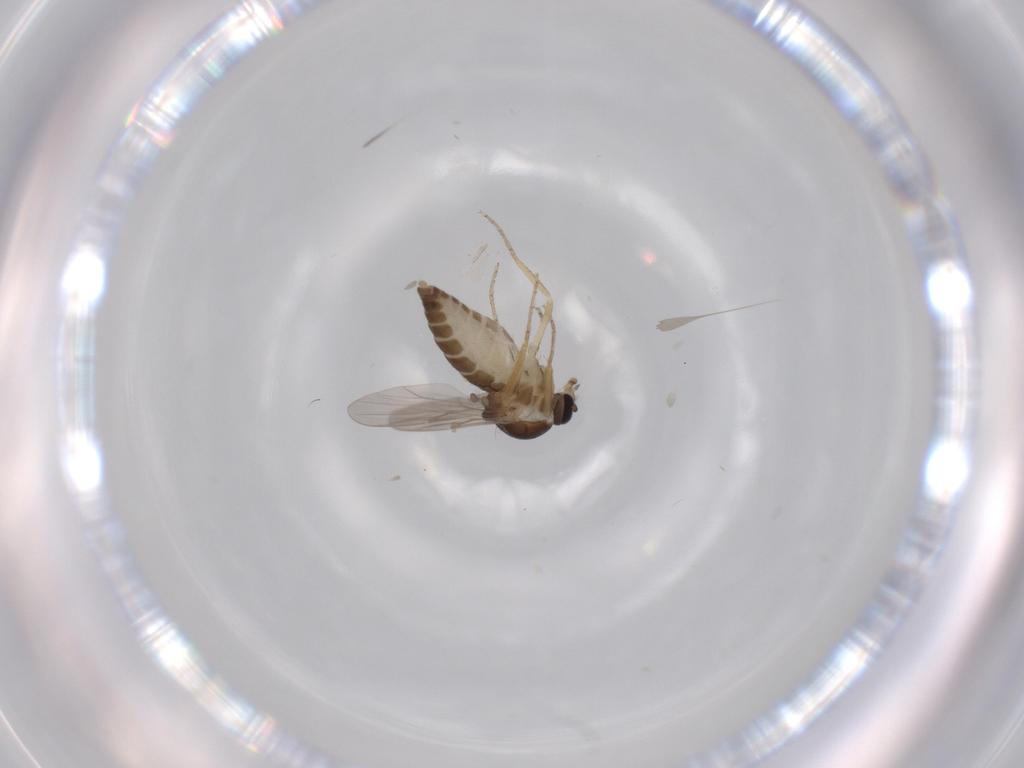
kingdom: Animalia
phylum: Arthropoda
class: Insecta
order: Diptera
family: Ceratopogonidae
